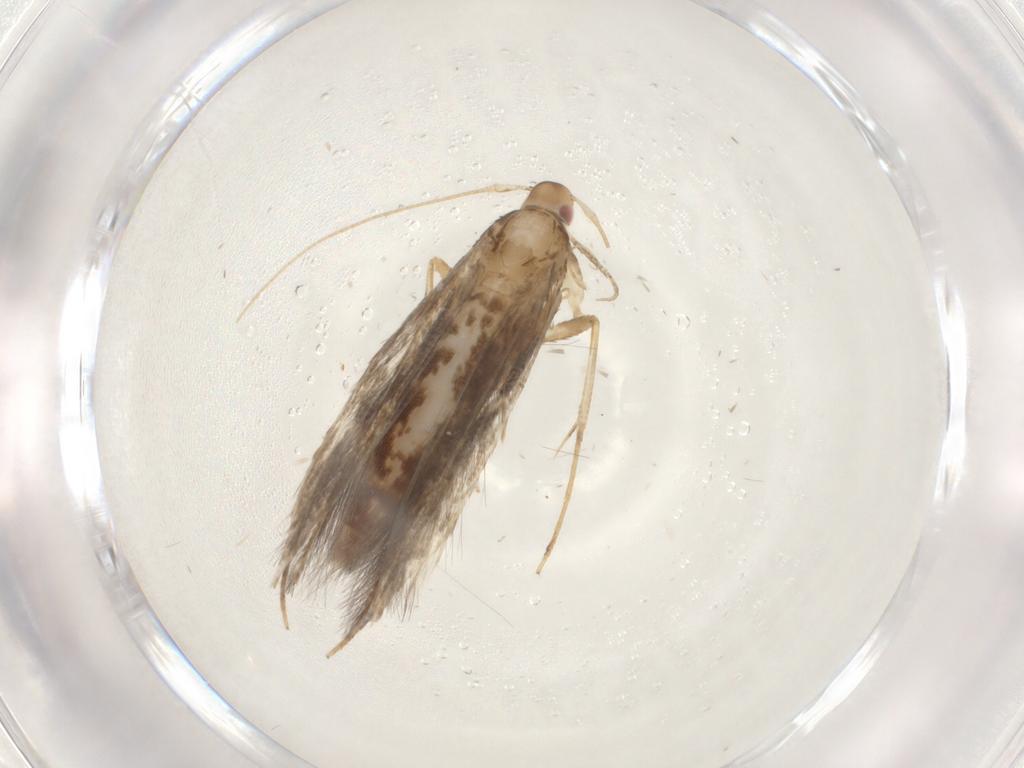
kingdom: Animalia
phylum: Arthropoda
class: Insecta
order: Lepidoptera
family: Cosmopterigidae
